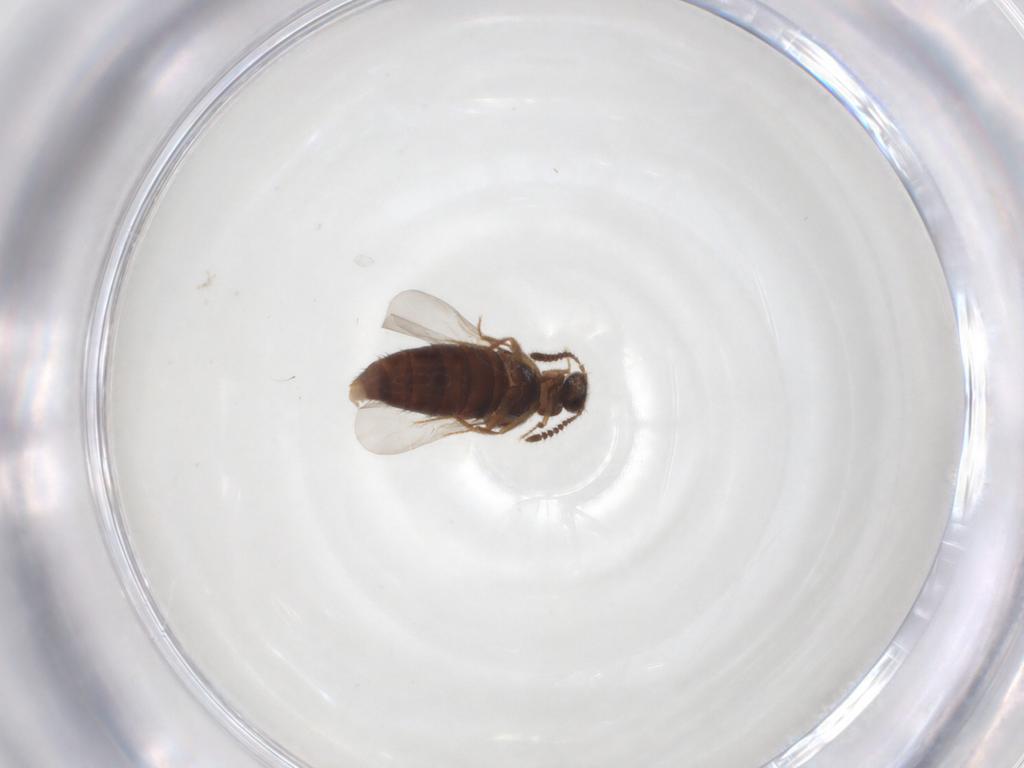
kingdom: Animalia
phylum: Arthropoda
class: Insecta
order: Coleoptera
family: Staphylinidae
